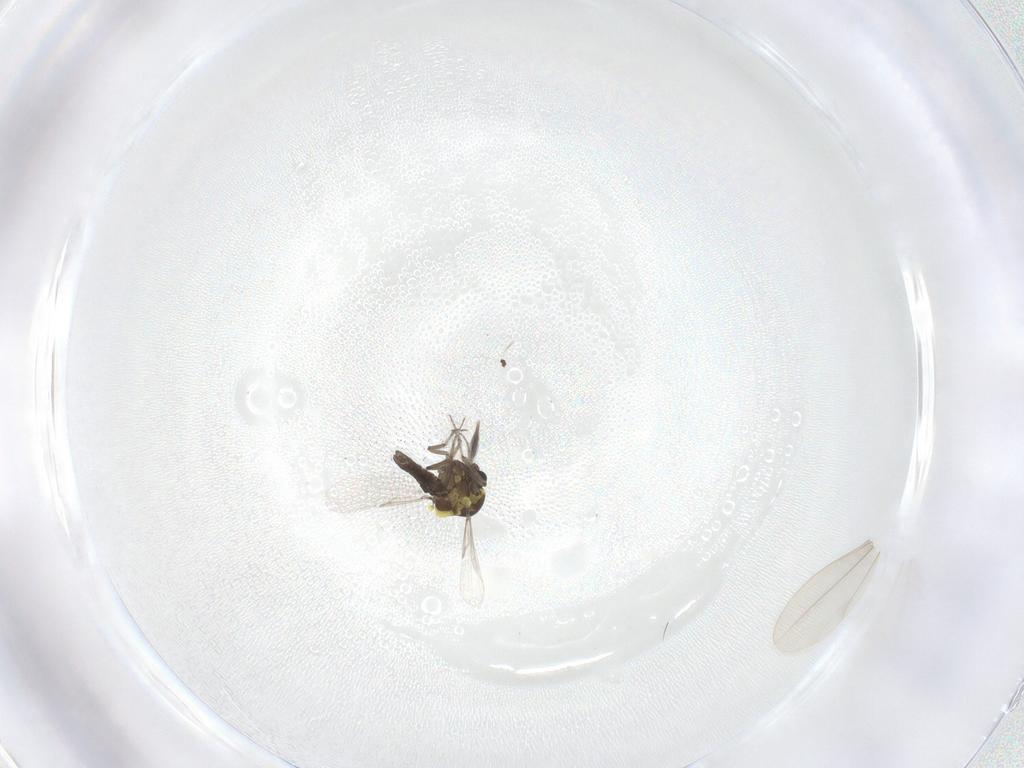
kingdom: Animalia
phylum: Arthropoda
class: Insecta
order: Diptera
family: Ceratopogonidae
